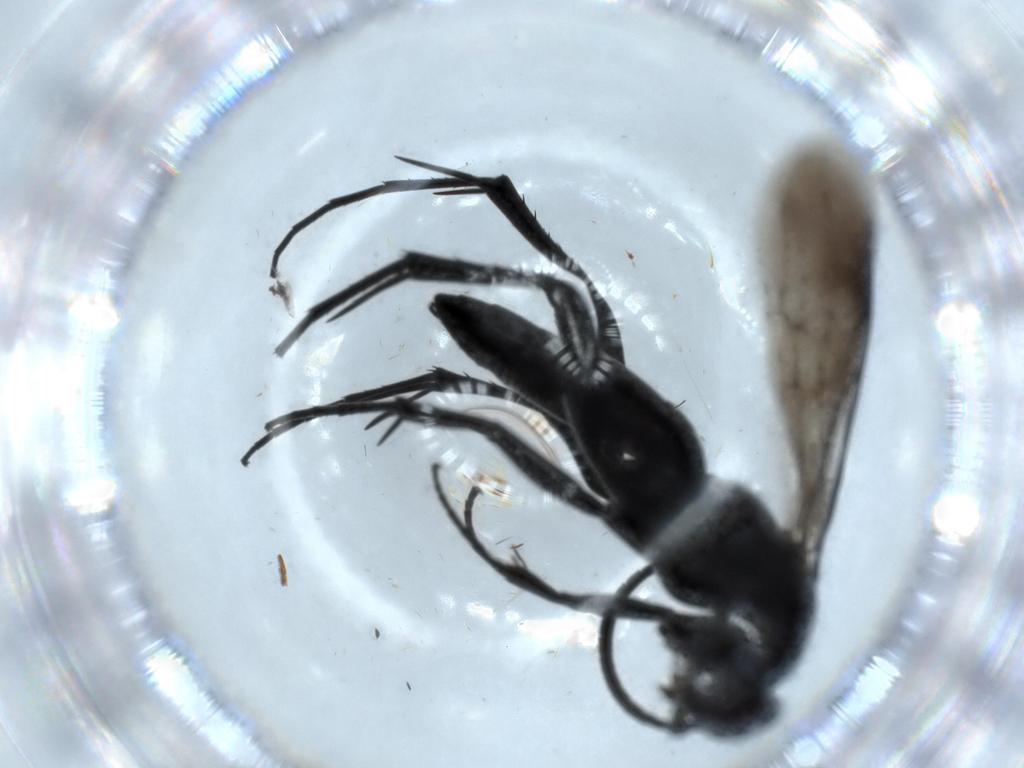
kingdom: Animalia
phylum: Arthropoda
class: Insecta
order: Hymenoptera
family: Pompilidae
